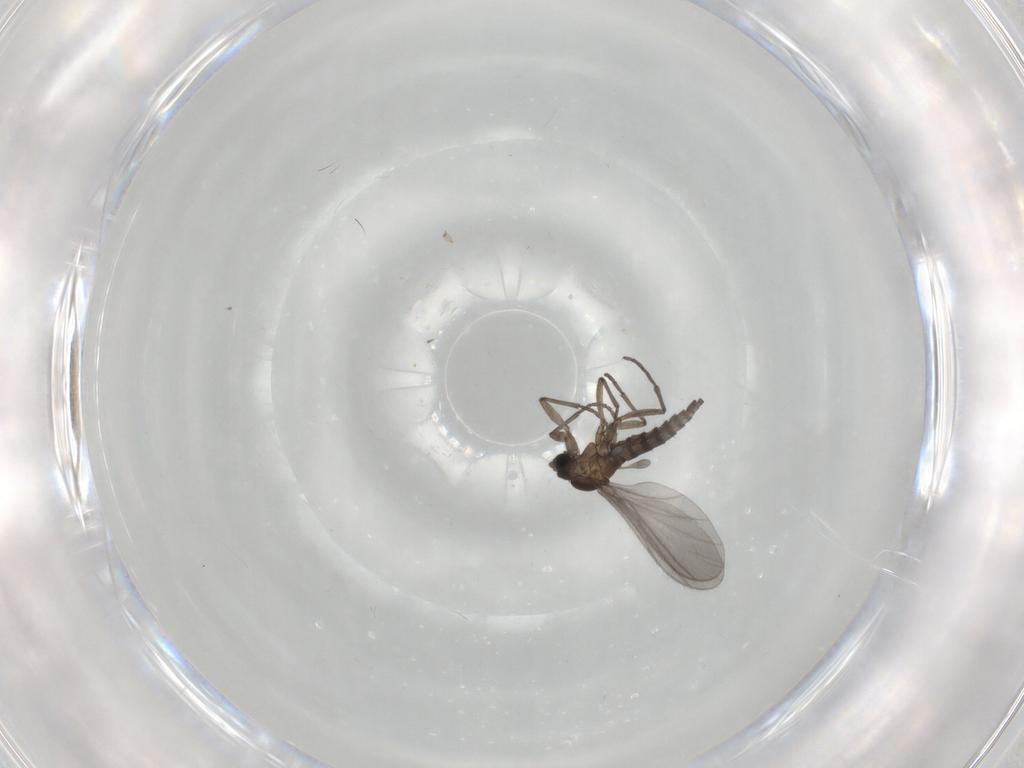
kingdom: Animalia
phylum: Arthropoda
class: Insecta
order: Diptera
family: Sciaridae
